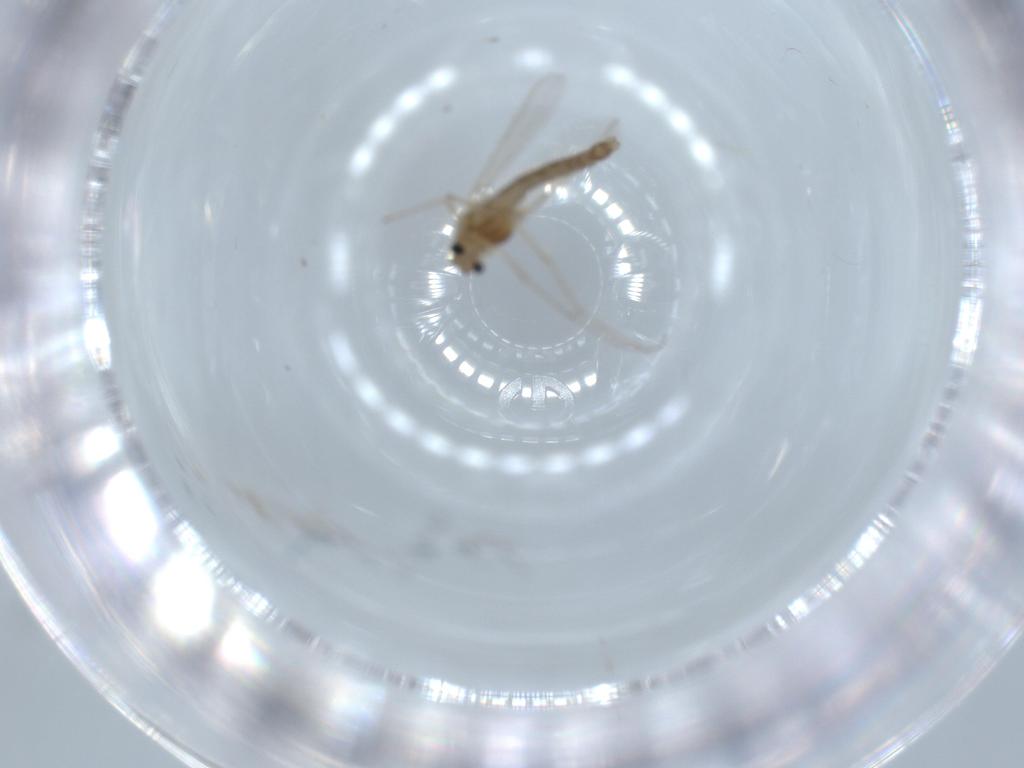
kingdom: Animalia
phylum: Arthropoda
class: Insecta
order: Diptera
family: Chironomidae
